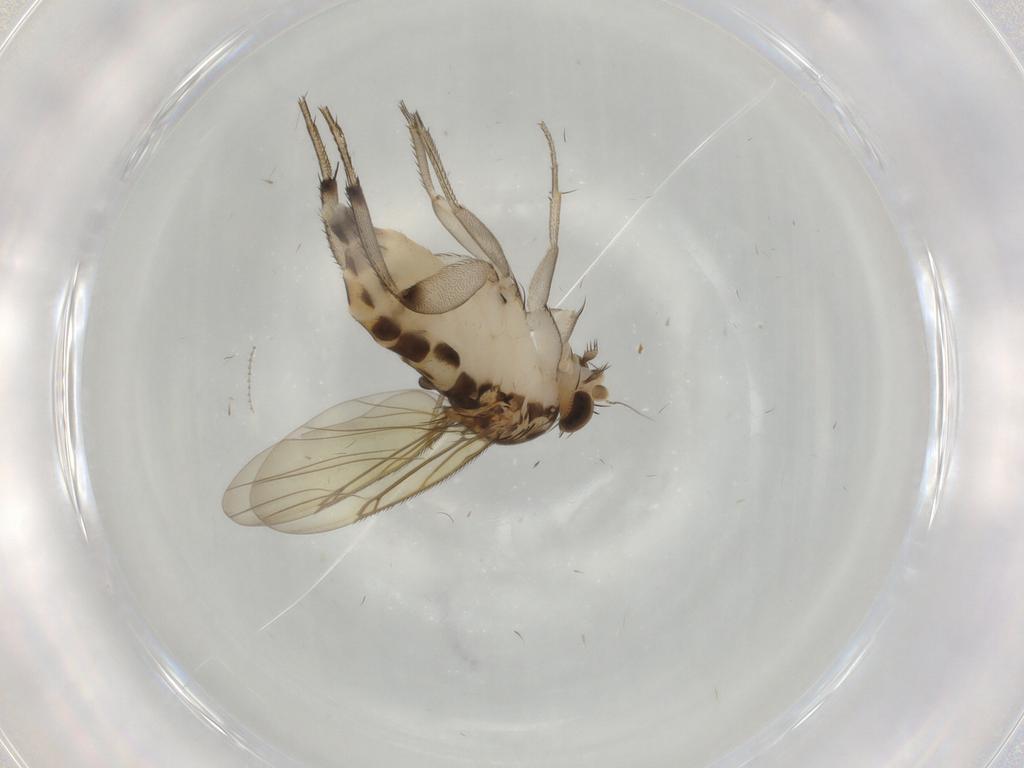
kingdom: Animalia
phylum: Arthropoda
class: Insecta
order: Diptera
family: Phoridae
